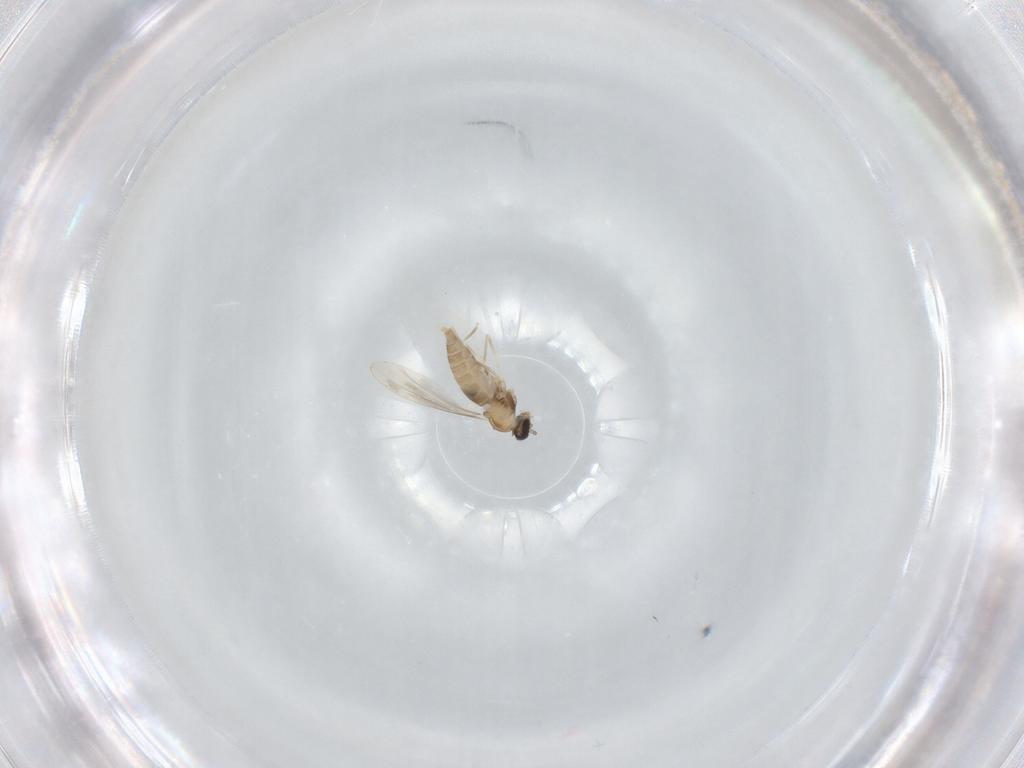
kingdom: Animalia
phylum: Arthropoda
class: Insecta
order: Diptera
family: Cecidomyiidae
